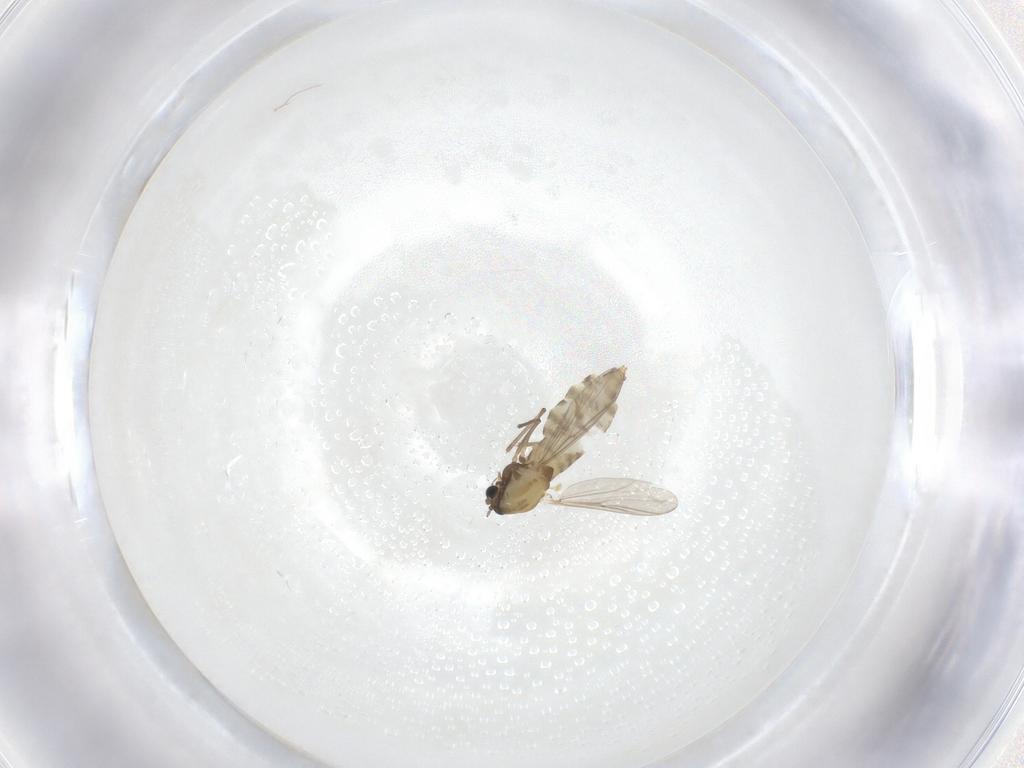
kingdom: Animalia
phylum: Arthropoda
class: Insecta
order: Diptera
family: Chironomidae
